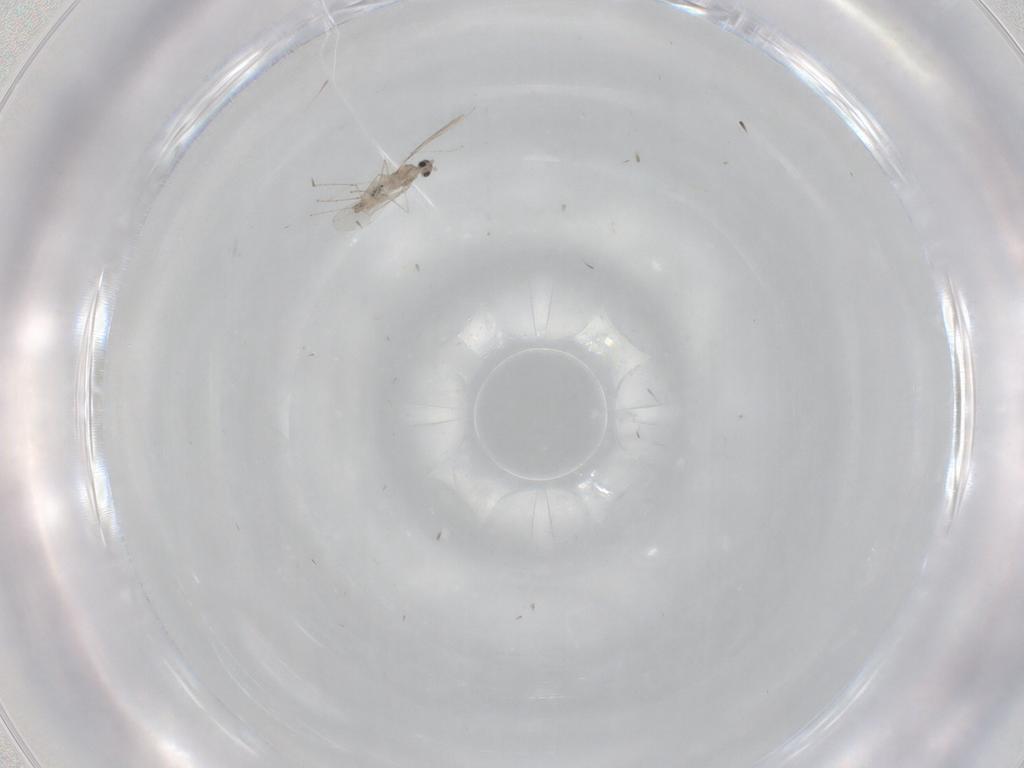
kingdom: Animalia
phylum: Arthropoda
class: Insecta
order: Diptera
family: Cecidomyiidae
